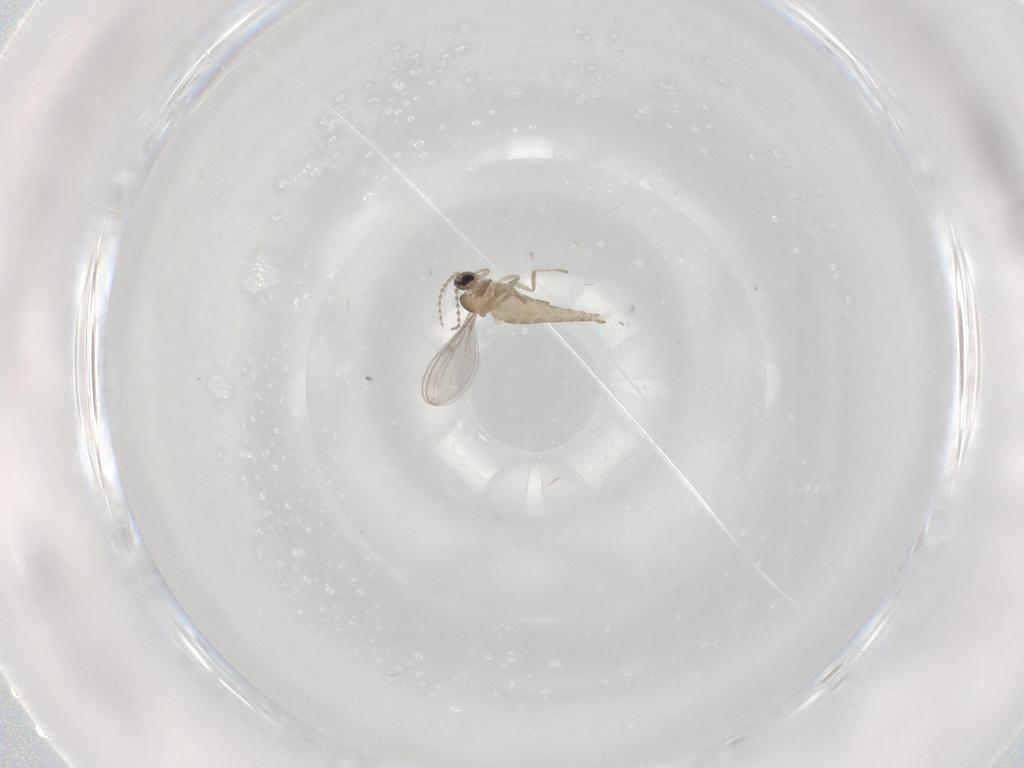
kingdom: Animalia
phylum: Arthropoda
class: Insecta
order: Diptera
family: Cecidomyiidae
